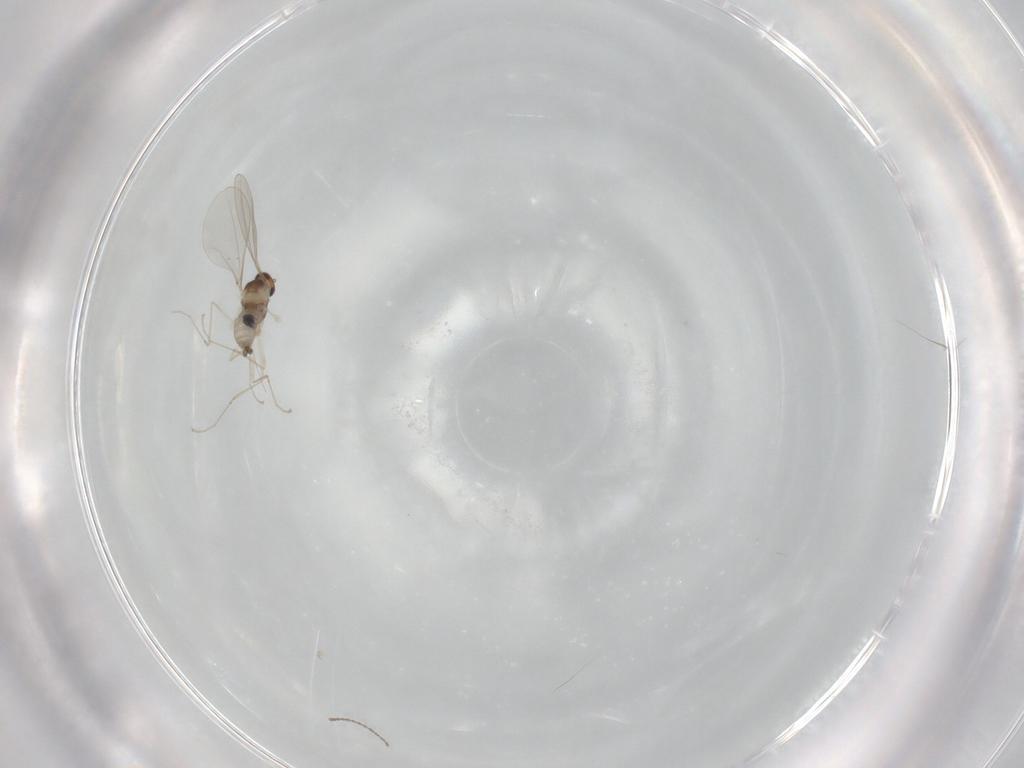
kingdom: Animalia
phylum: Arthropoda
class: Insecta
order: Diptera
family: Cecidomyiidae
